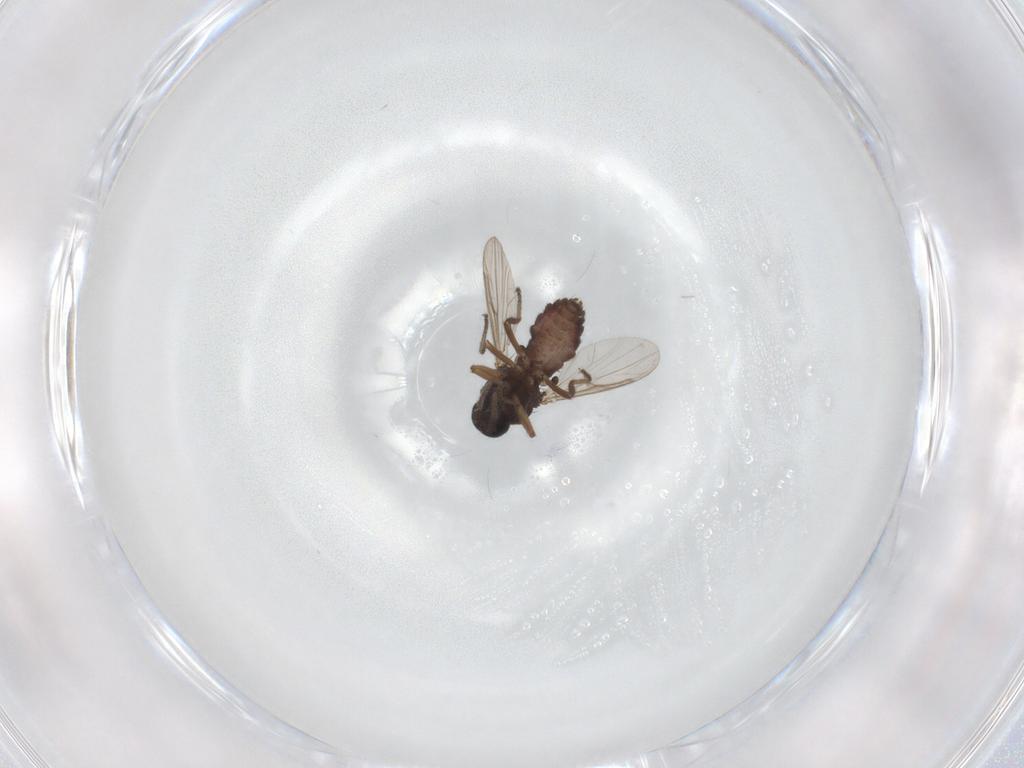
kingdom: Animalia
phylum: Arthropoda
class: Insecta
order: Diptera
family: Ceratopogonidae
